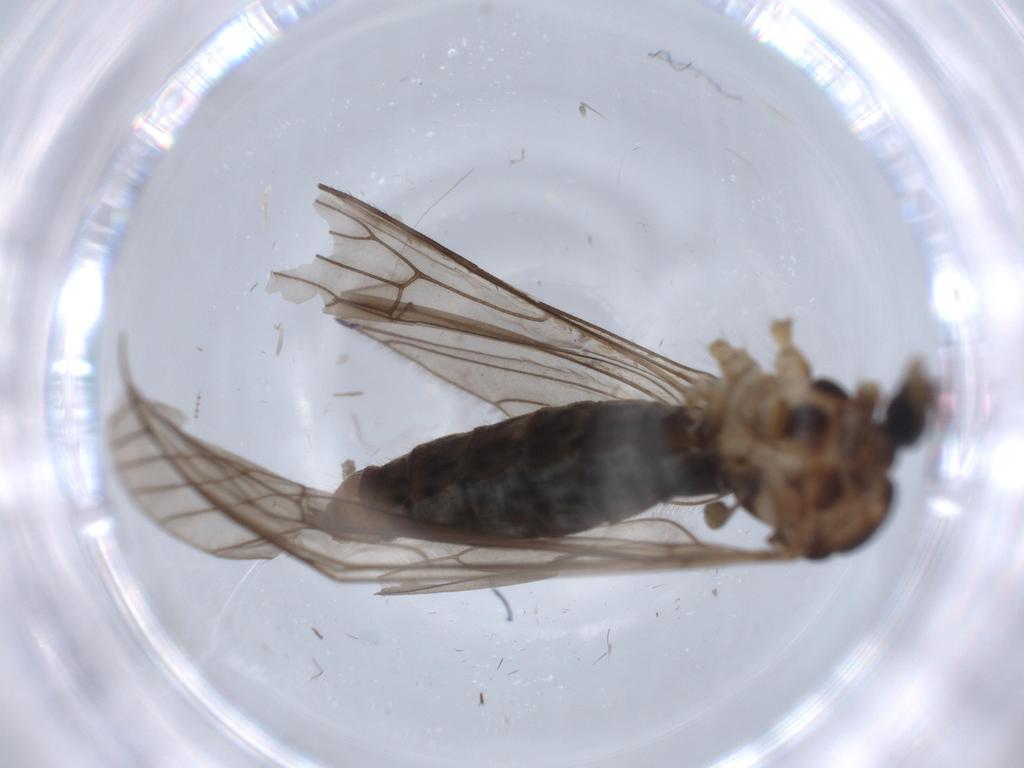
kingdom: Animalia
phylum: Arthropoda
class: Insecta
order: Diptera
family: Limoniidae
